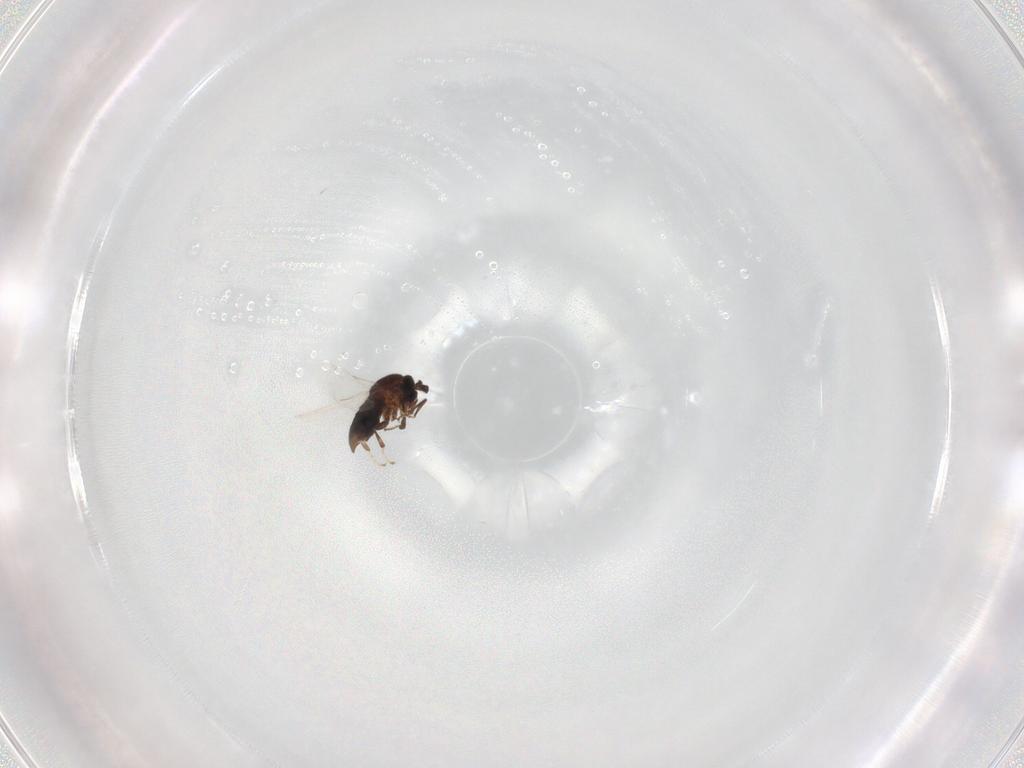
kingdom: Animalia
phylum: Arthropoda
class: Insecta
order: Diptera
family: Scatopsidae
